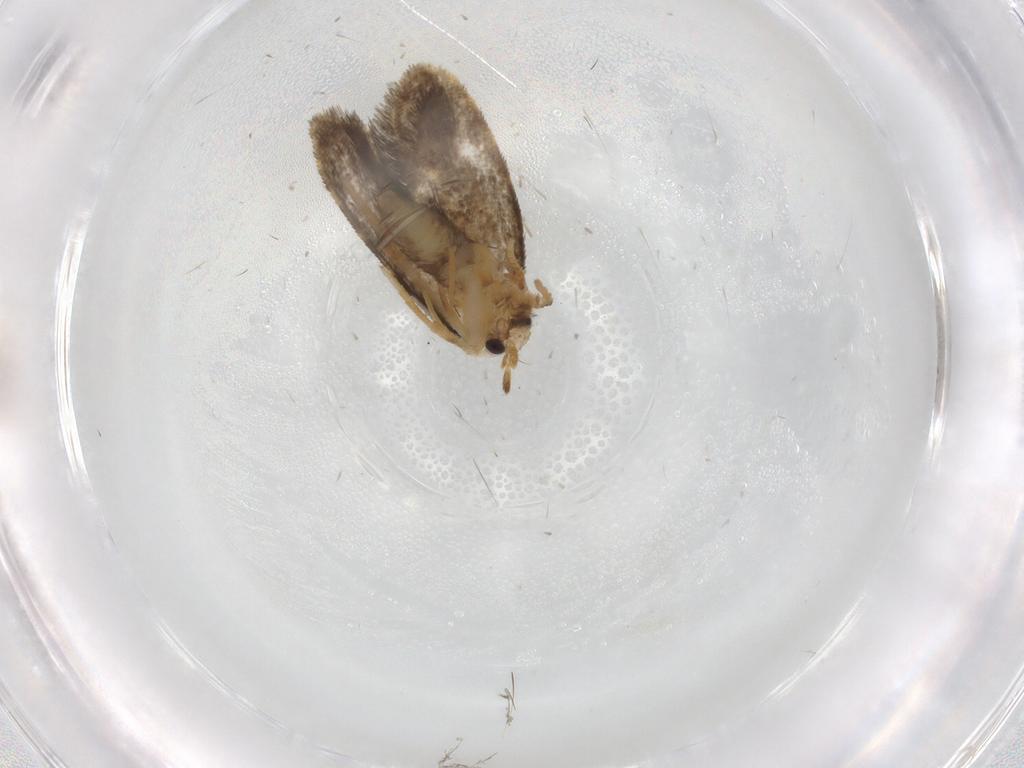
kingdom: Animalia
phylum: Arthropoda
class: Insecta
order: Lepidoptera
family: Psychidae
